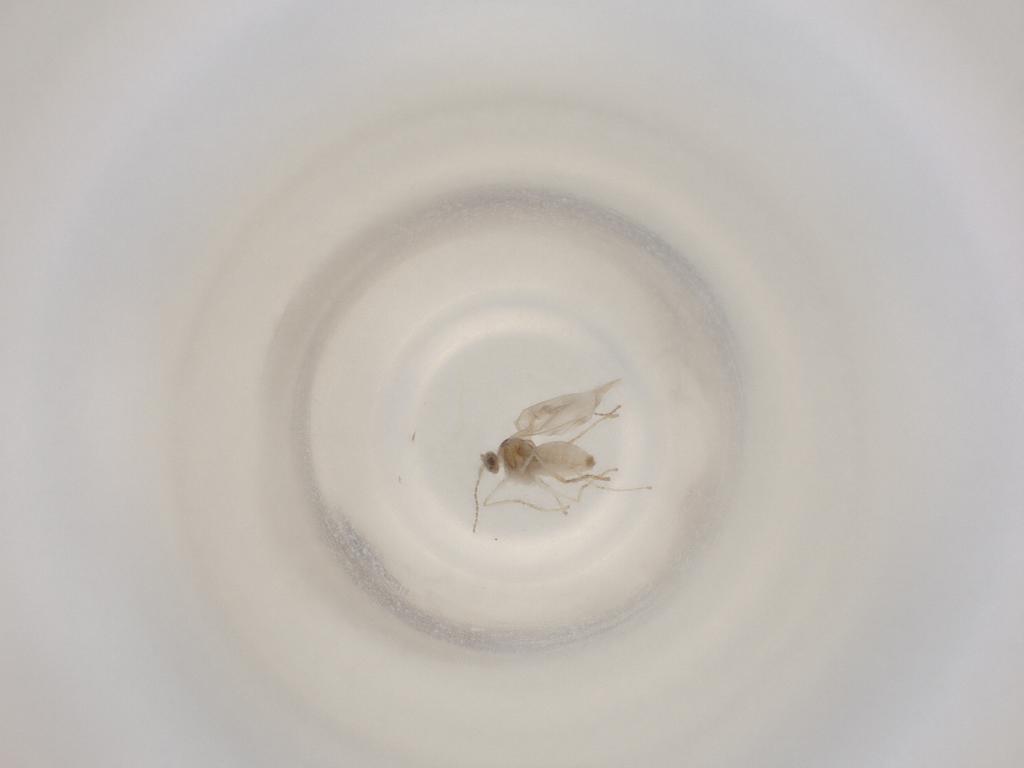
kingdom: Animalia
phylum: Arthropoda
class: Insecta
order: Diptera
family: Cecidomyiidae
